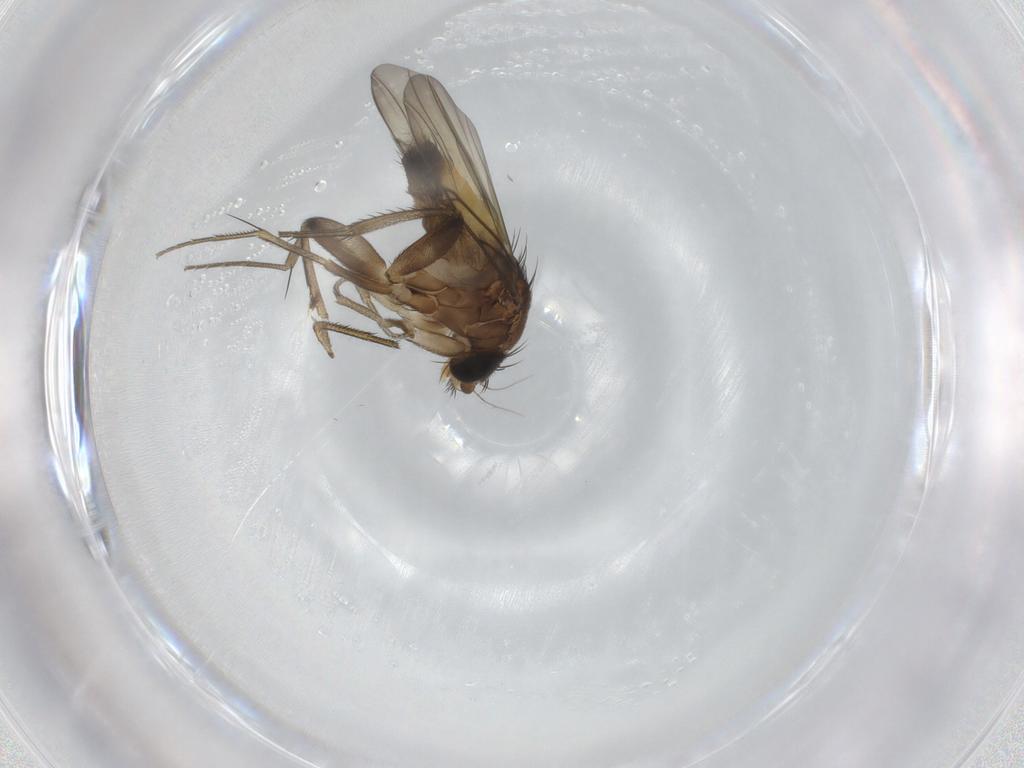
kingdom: Animalia
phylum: Arthropoda
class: Insecta
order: Diptera
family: Phoridae
